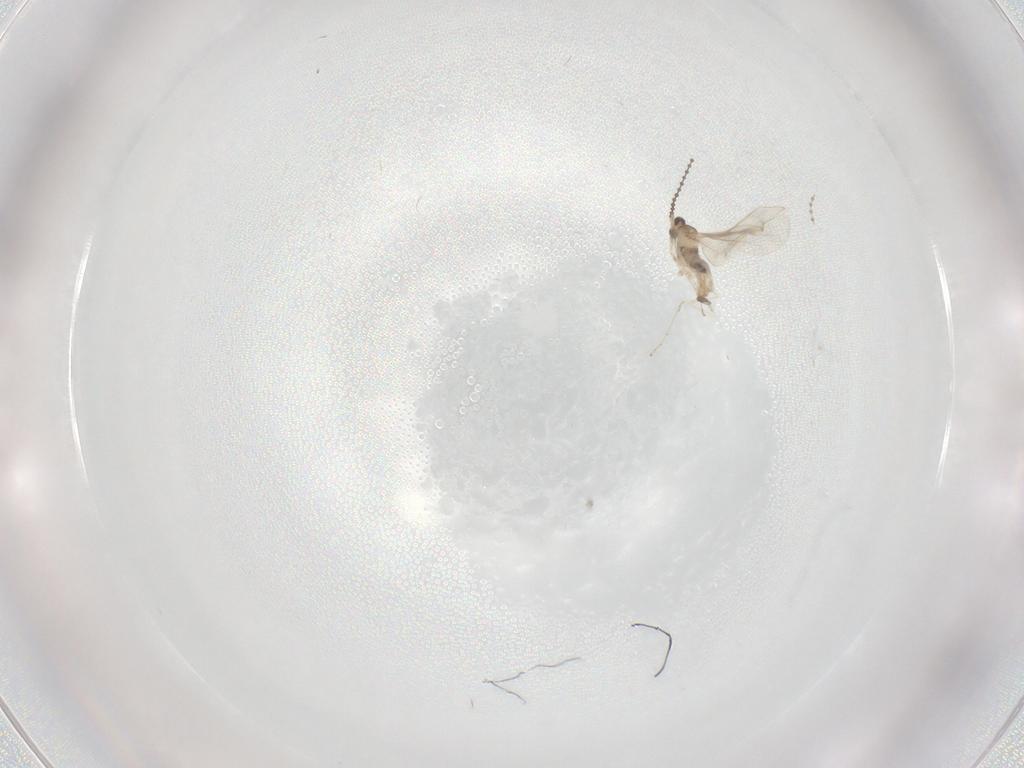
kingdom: Animalia
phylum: Arthropoda
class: Insecta
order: Diptera
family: Cecidomyiidae
